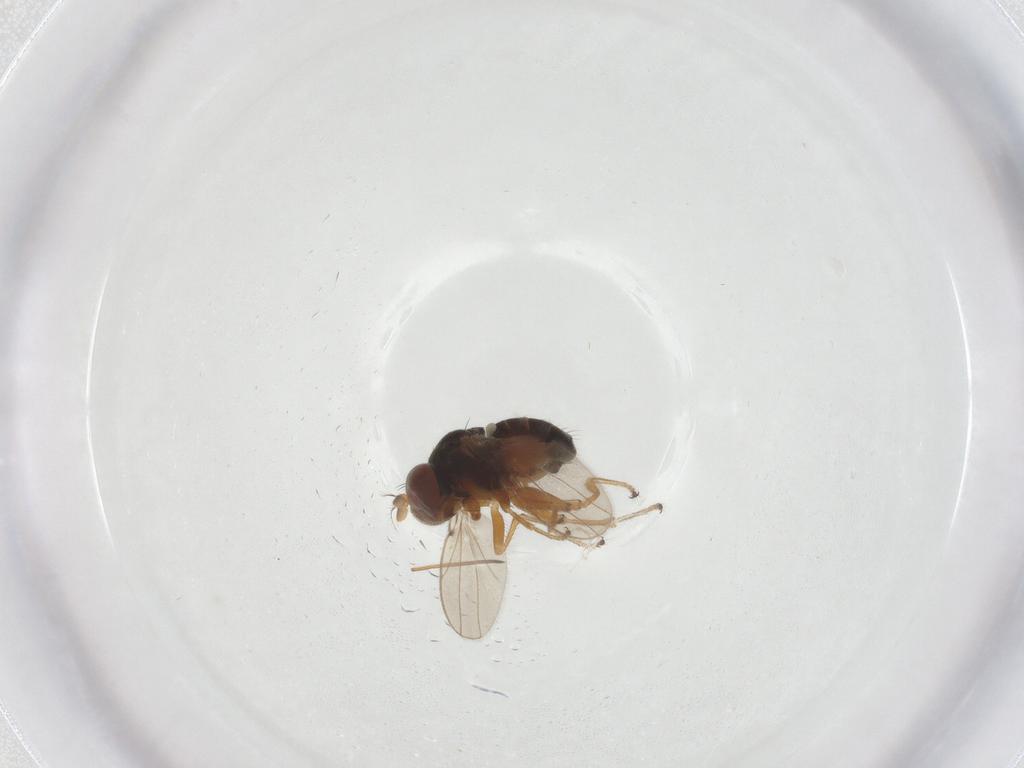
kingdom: Animalia
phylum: Arthropoda
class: Insecta
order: Diptera
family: Ephydridae
